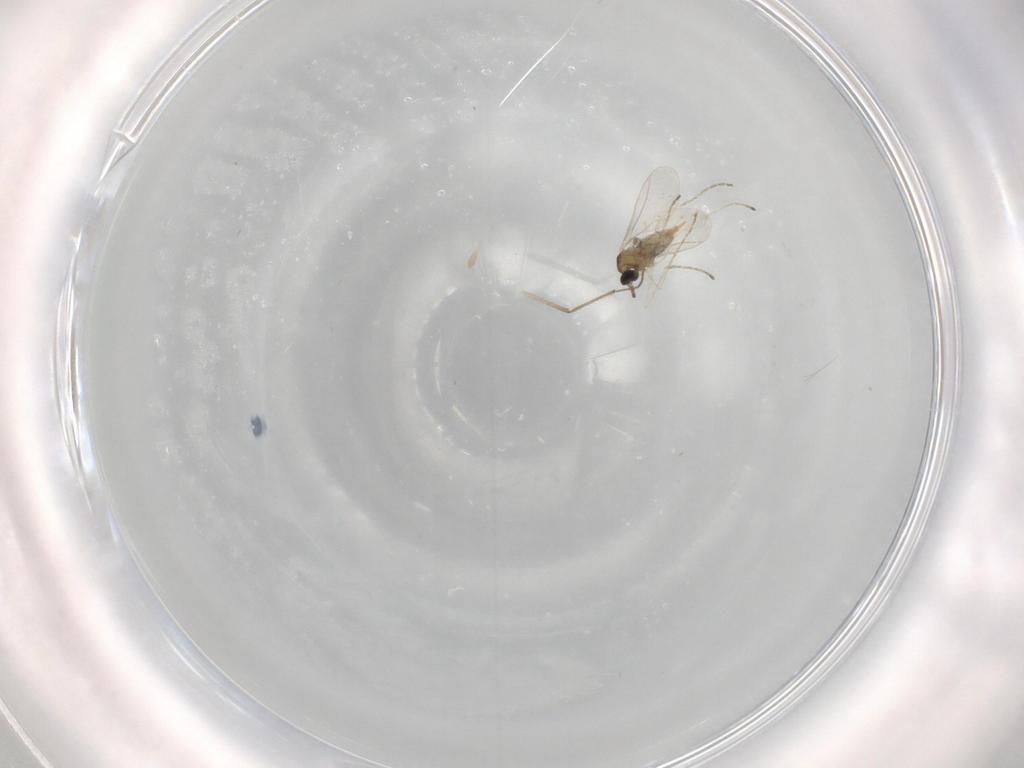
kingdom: Animalia
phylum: Arthropoda
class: Insecta
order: Diptera
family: Cecidomyiidae
